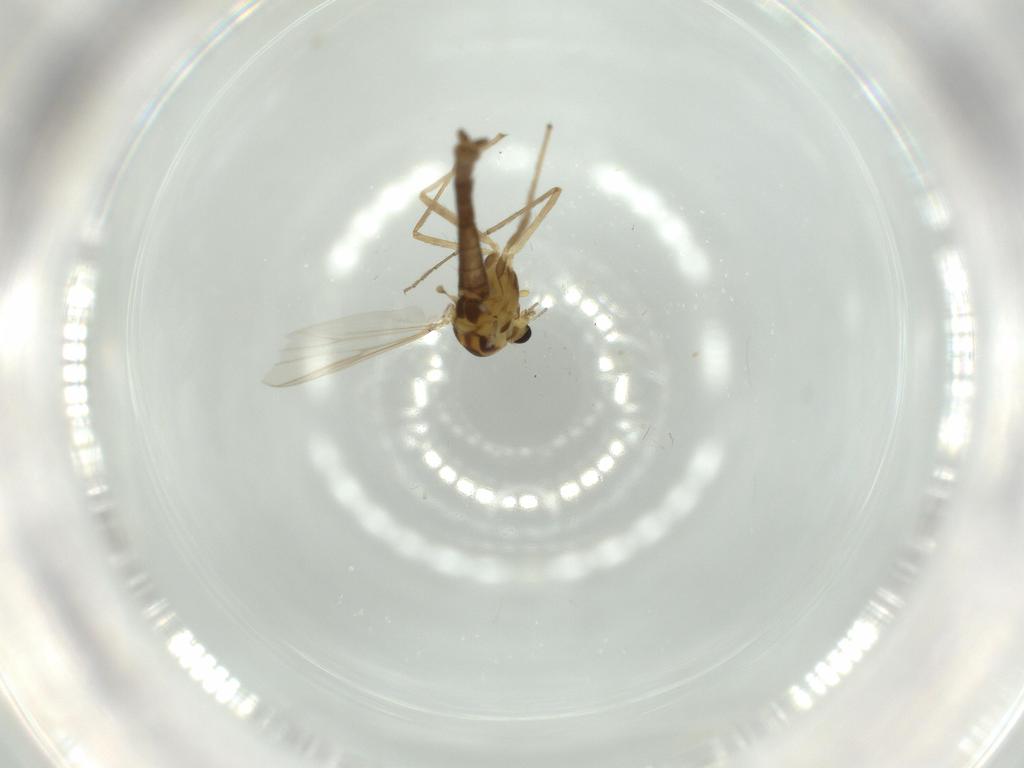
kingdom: Animalia
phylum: Arthropoda
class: Insecta
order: Diptera
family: Chironomidae
